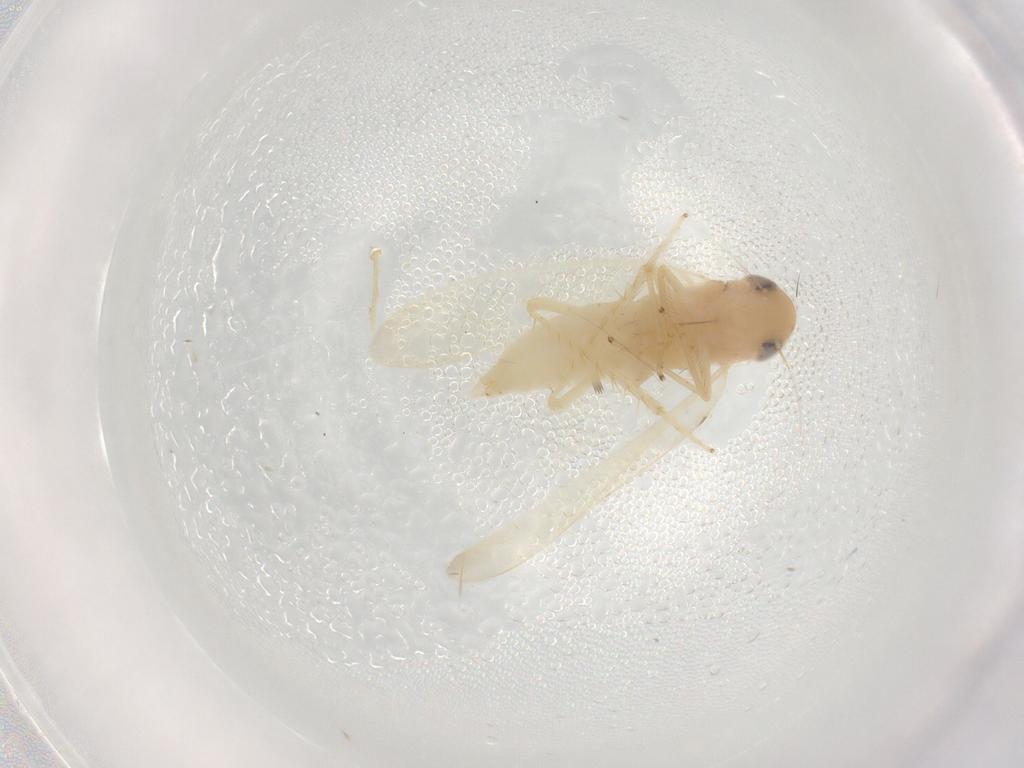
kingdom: Animalia
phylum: Arthropoda
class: Insecta
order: Hemiptera
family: Cicadellidae
